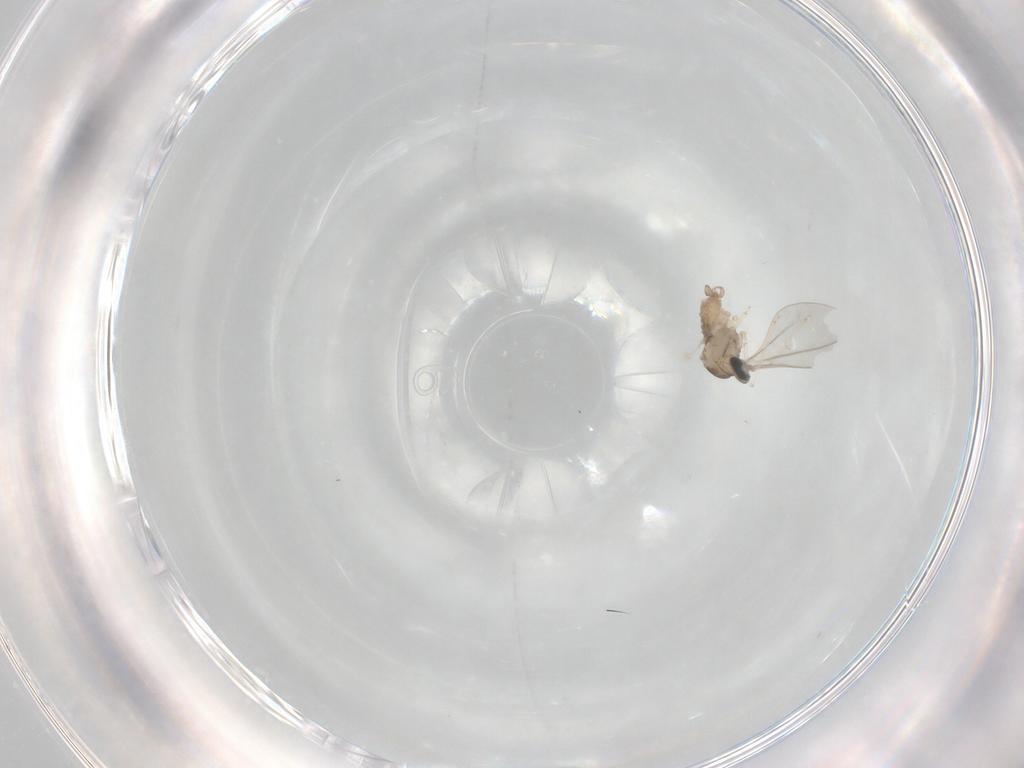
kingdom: Animalia
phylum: Arthropoda
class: Insecta
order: Diptera
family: Cecidomyiidae
